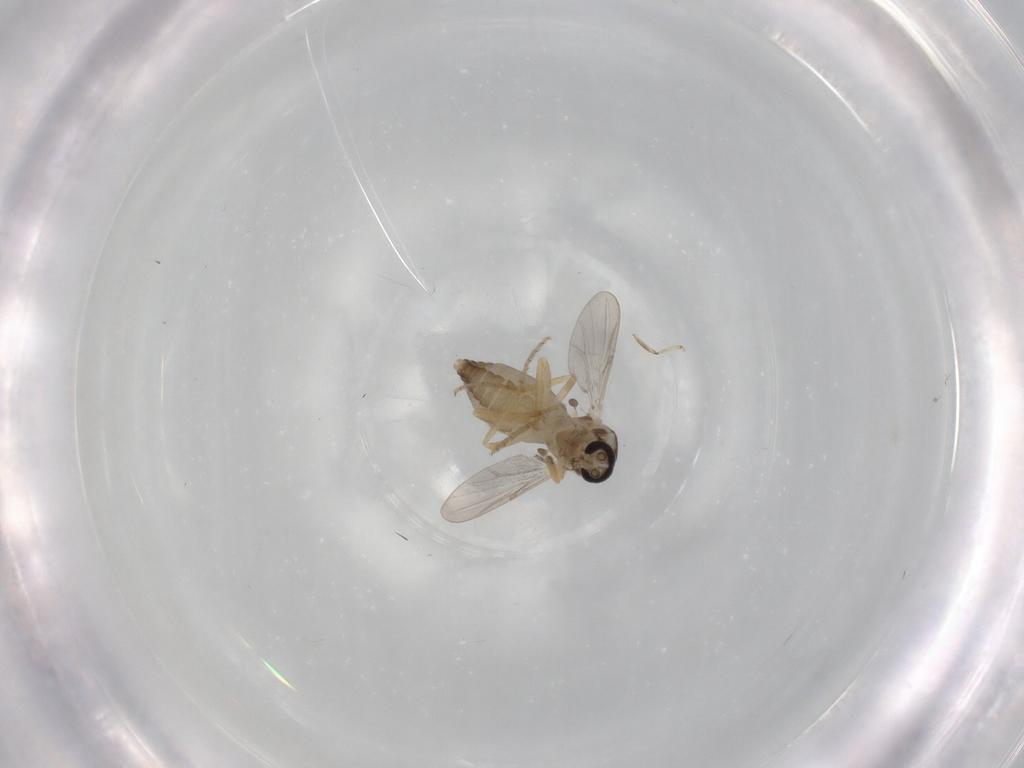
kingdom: Animalia
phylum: Arthropoda
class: Insecta
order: Diptera
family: Ceratopogonidae
